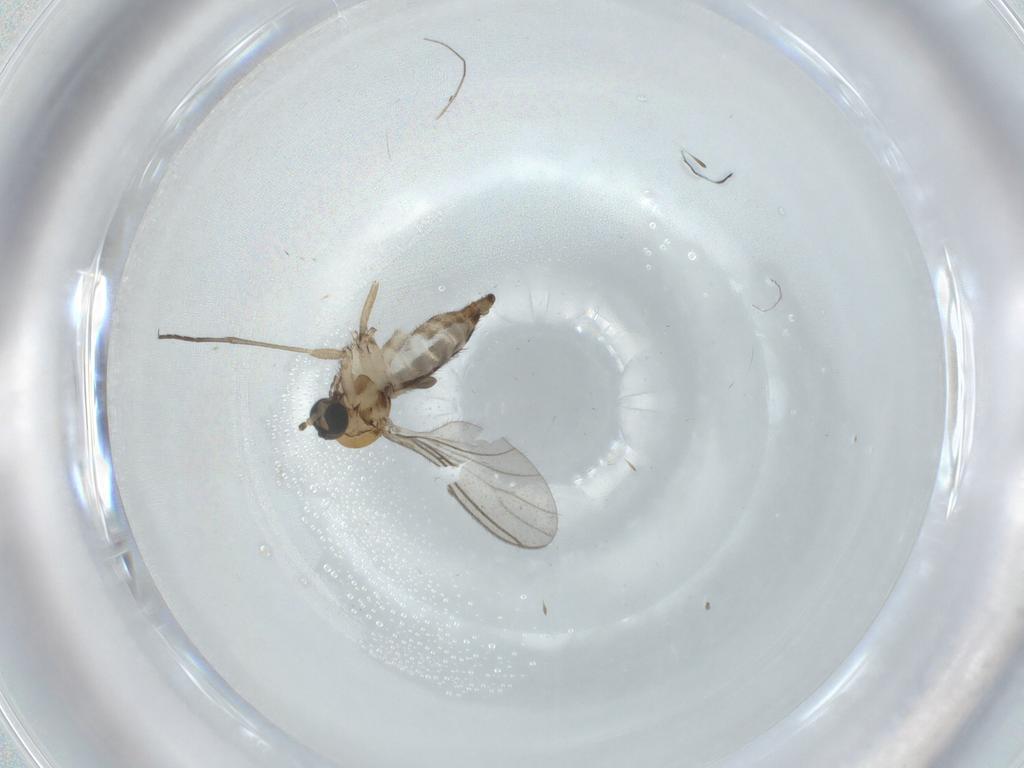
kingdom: Animalia
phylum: Arthropoda
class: Insecta
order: Diptera
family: Sciaridae
